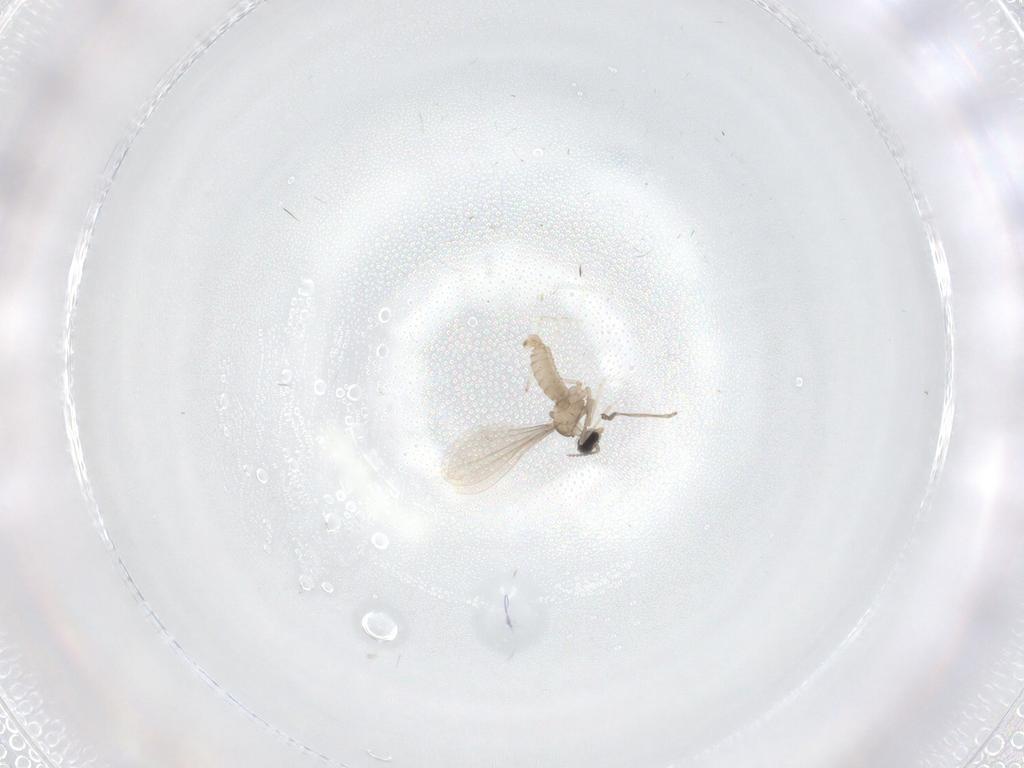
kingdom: Animalia
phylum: Arthropoda
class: Insecta
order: Diptera
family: Cecidomyiidae
